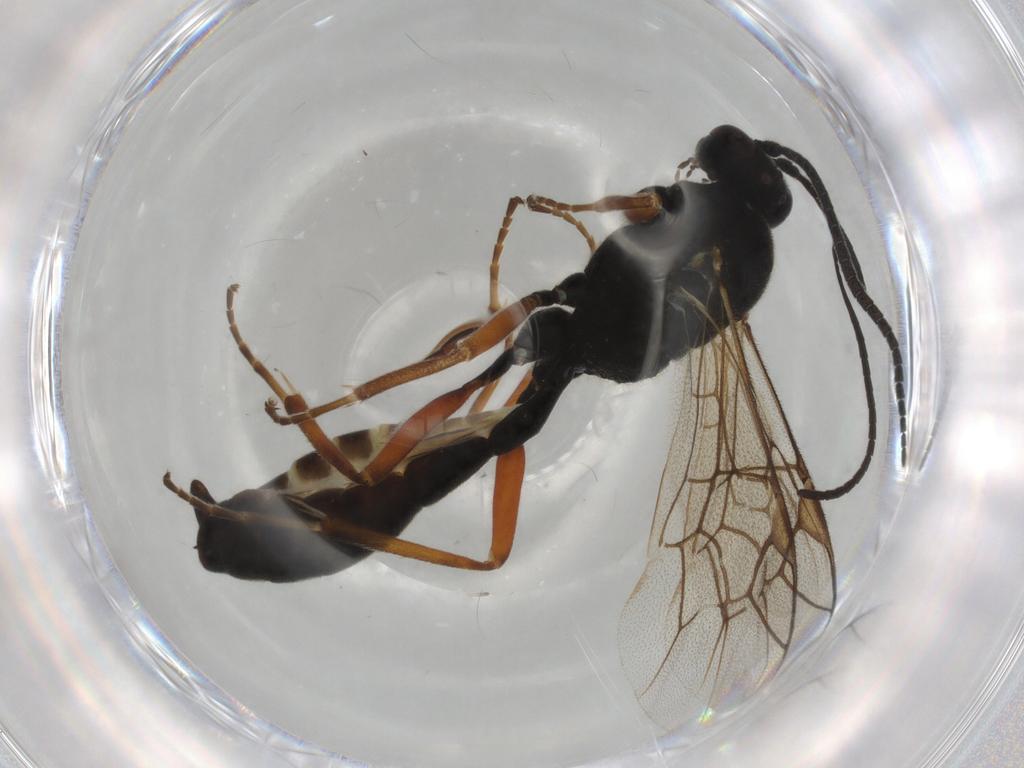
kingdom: Animalia
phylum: Arthropoda
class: Insecta
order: Hymenoptera
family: Ichneumonidae
